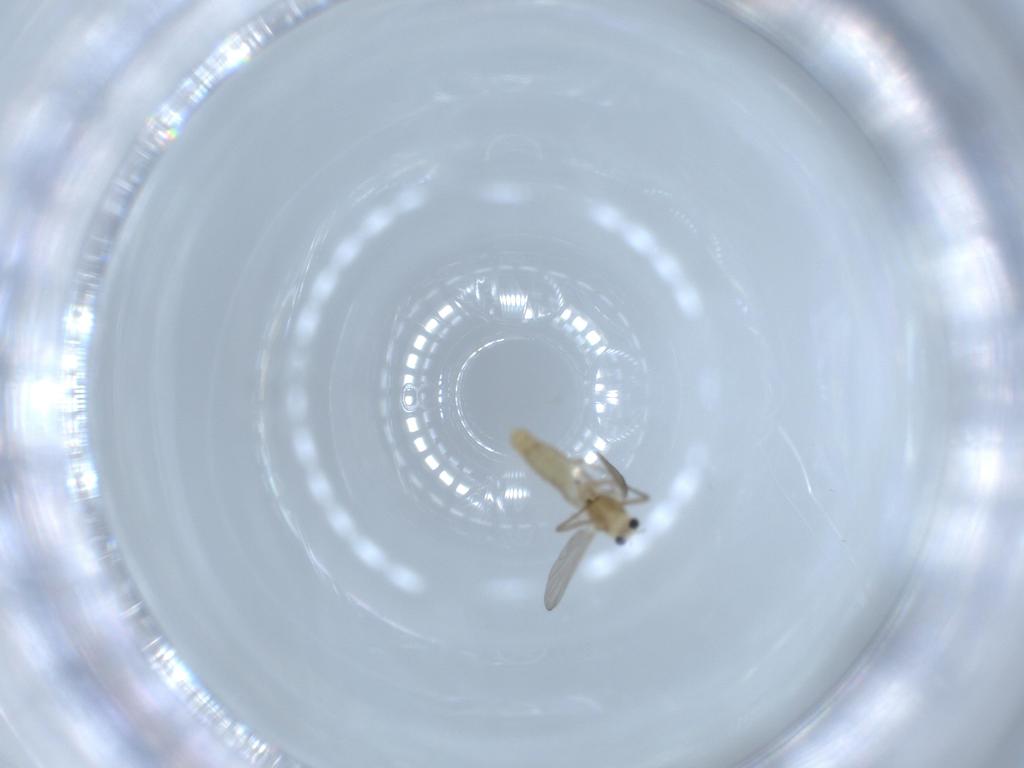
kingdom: Animalia
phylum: Arthropoda
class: Insecta
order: Diptera
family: Chironomidae
